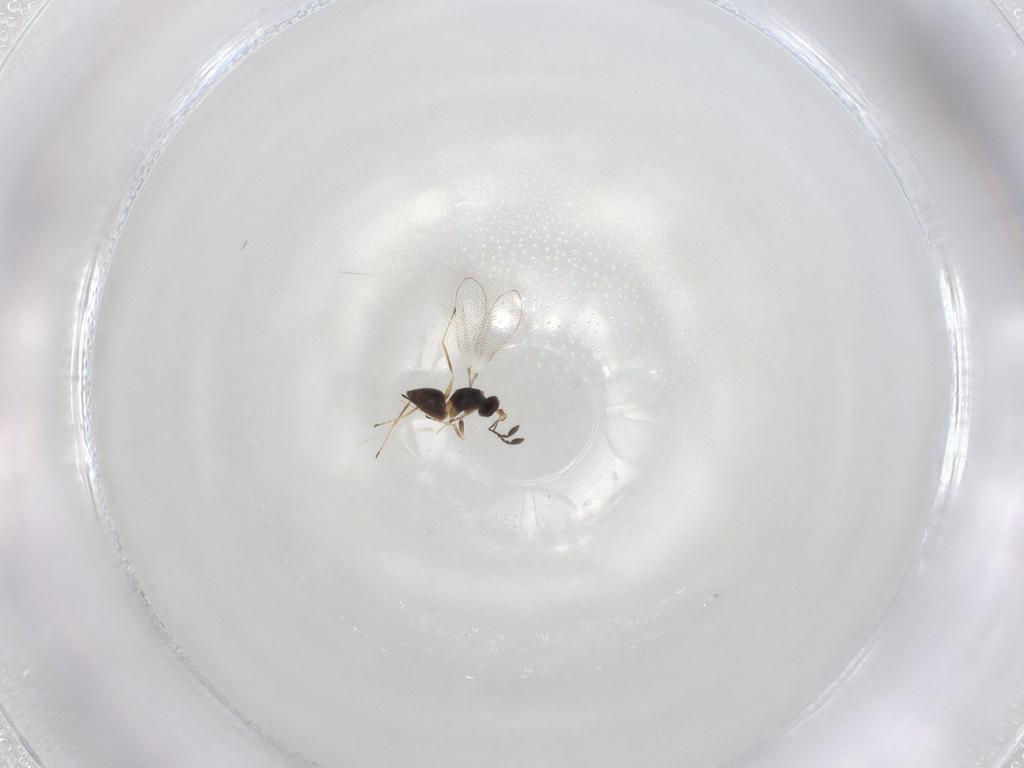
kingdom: Animalia
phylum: Arthropoda
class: Insecta
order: Hymenoptera
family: Mymaridae
